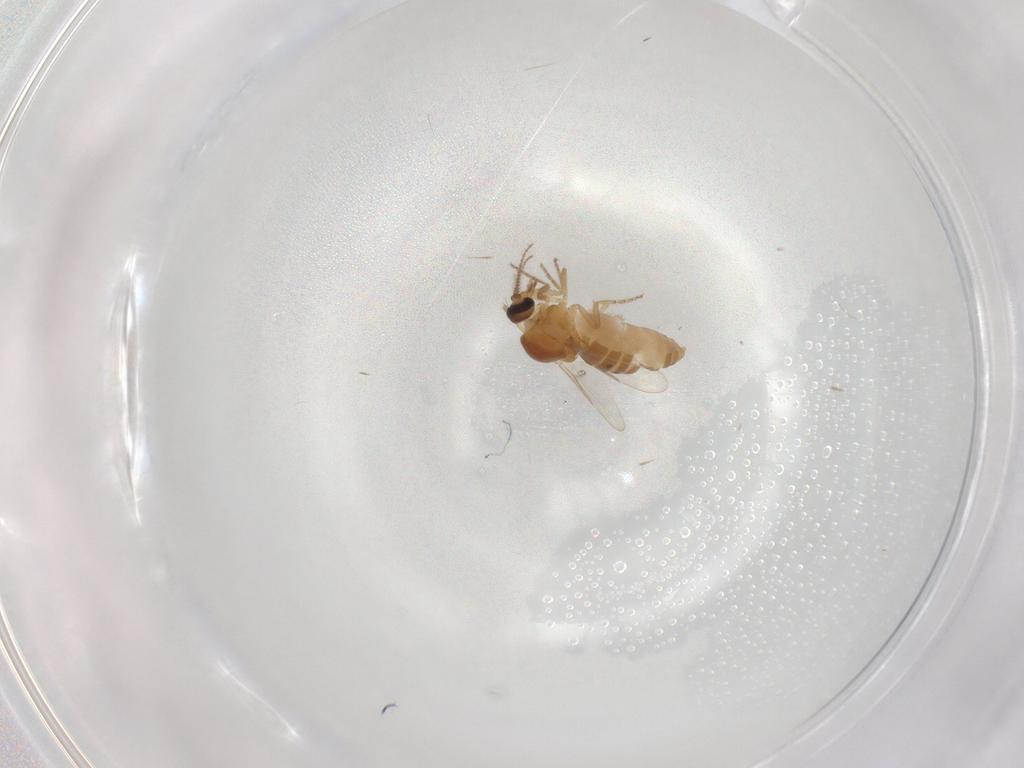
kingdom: Animalia
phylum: Arthropoda
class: Insecta
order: Diptera
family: Ceratopogonidae
